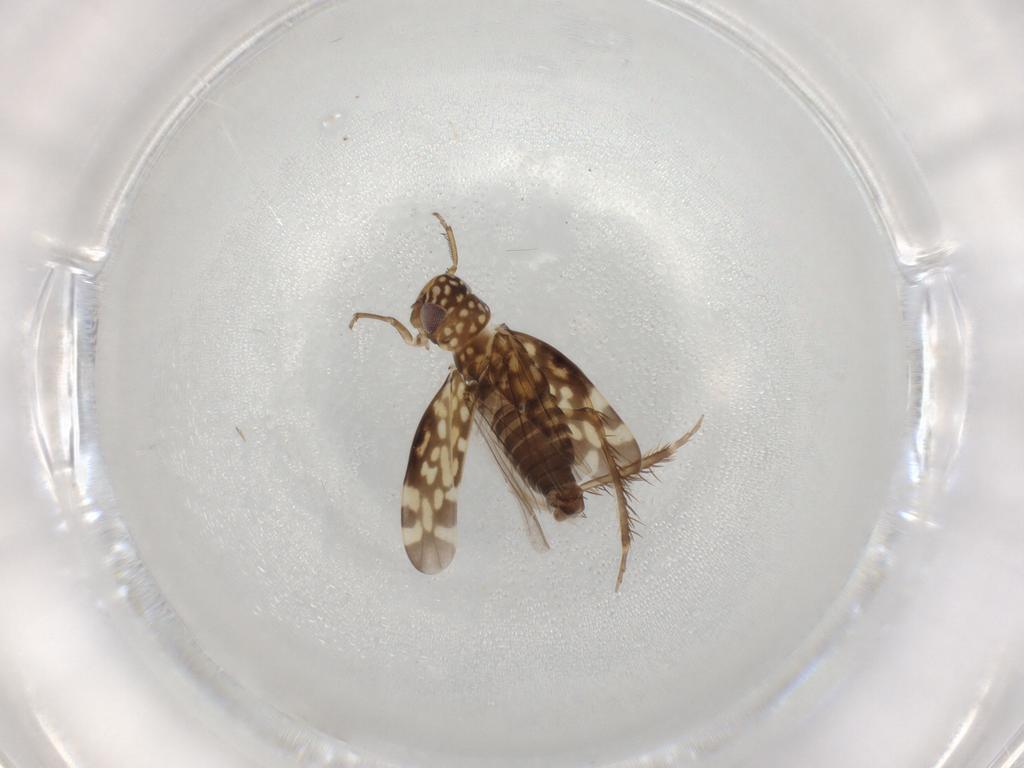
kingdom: Animalia
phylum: Arthropoda
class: Insecta
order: Hemiptera
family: Cicadellidae
